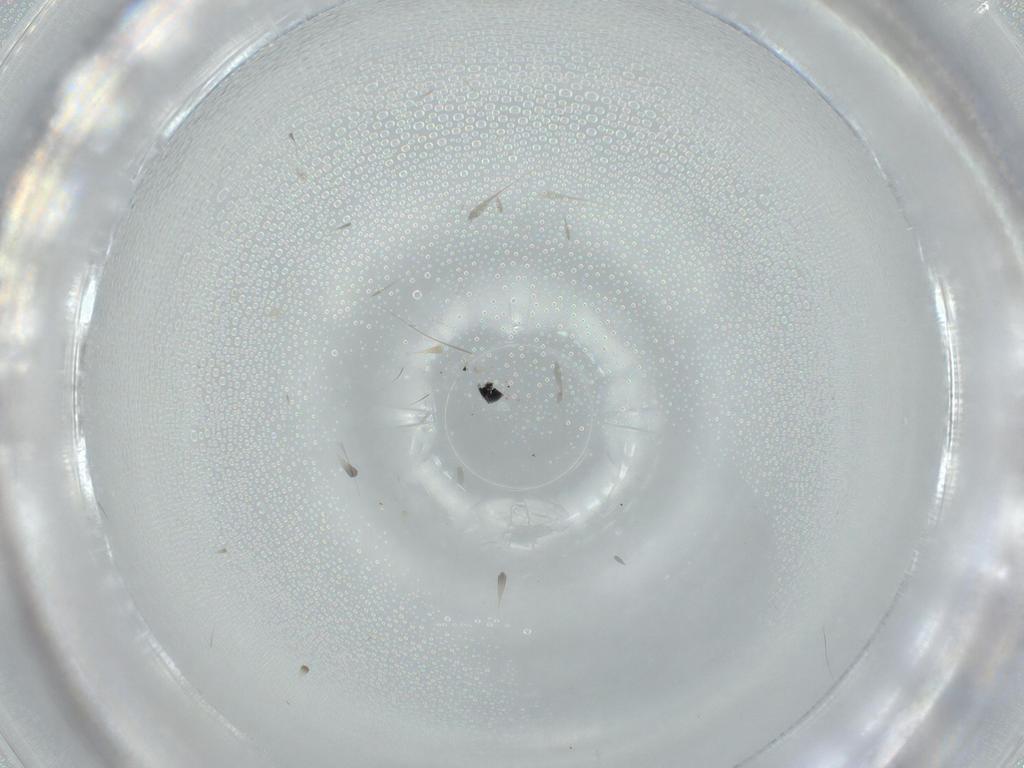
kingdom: Animalia
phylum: Arthropoda
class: Insecta
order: Diptera
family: Cecidomyiidae
